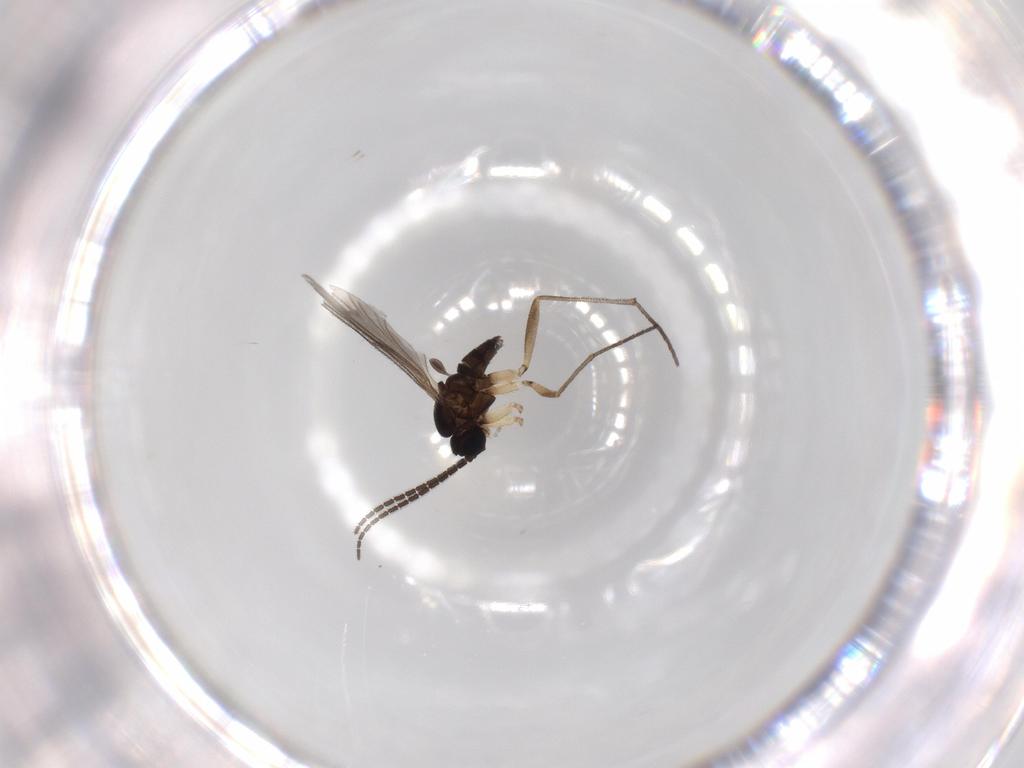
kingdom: Animalia
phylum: Arthropoda
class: Insecta
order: Diptera
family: Sciaridae
